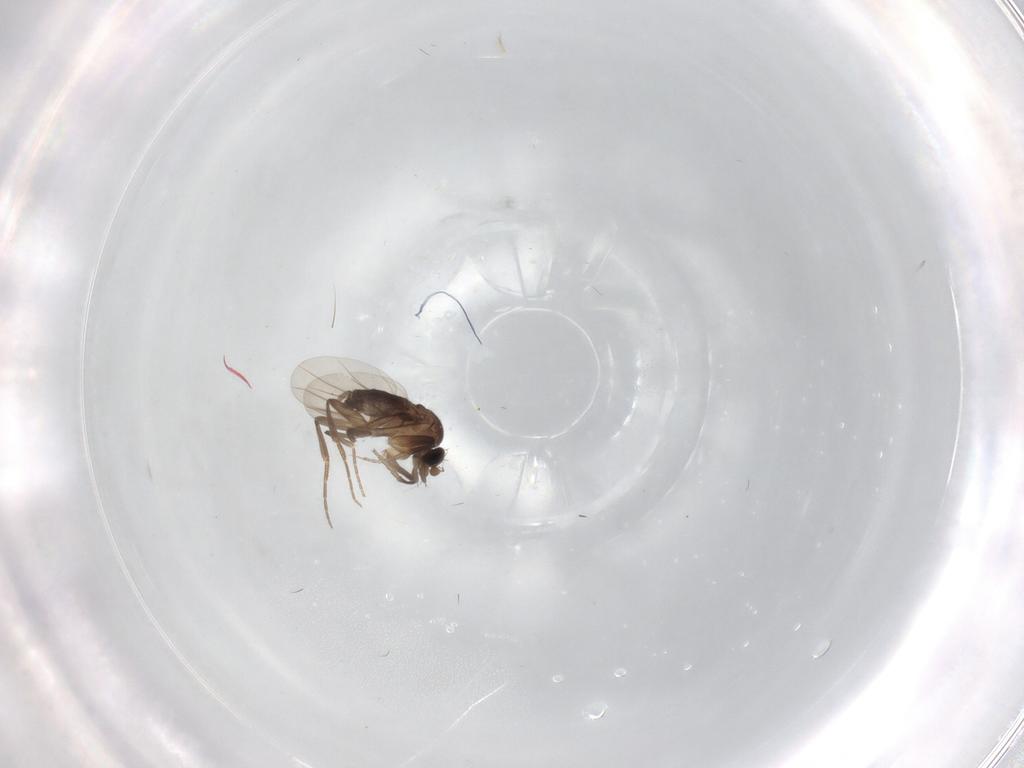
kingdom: Animalia
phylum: Arthropoda
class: Insecta
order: Diptera
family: Phoridae
